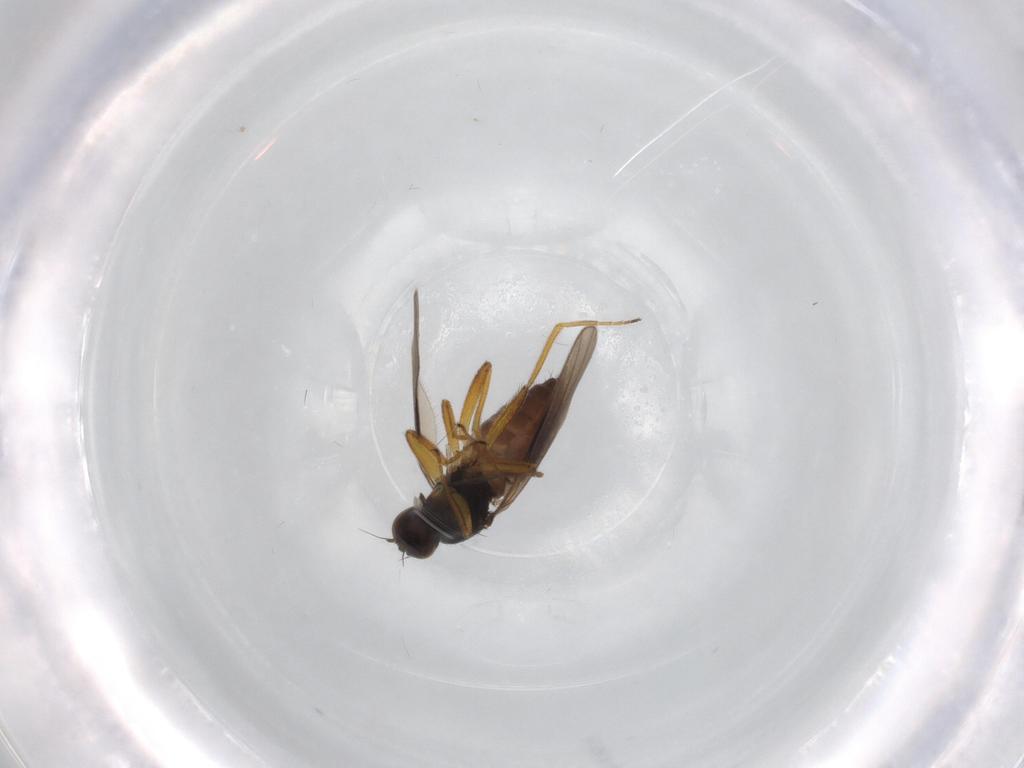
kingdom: Animalia
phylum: Arthropoda
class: Insecta
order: Diptera
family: Hybotidae
